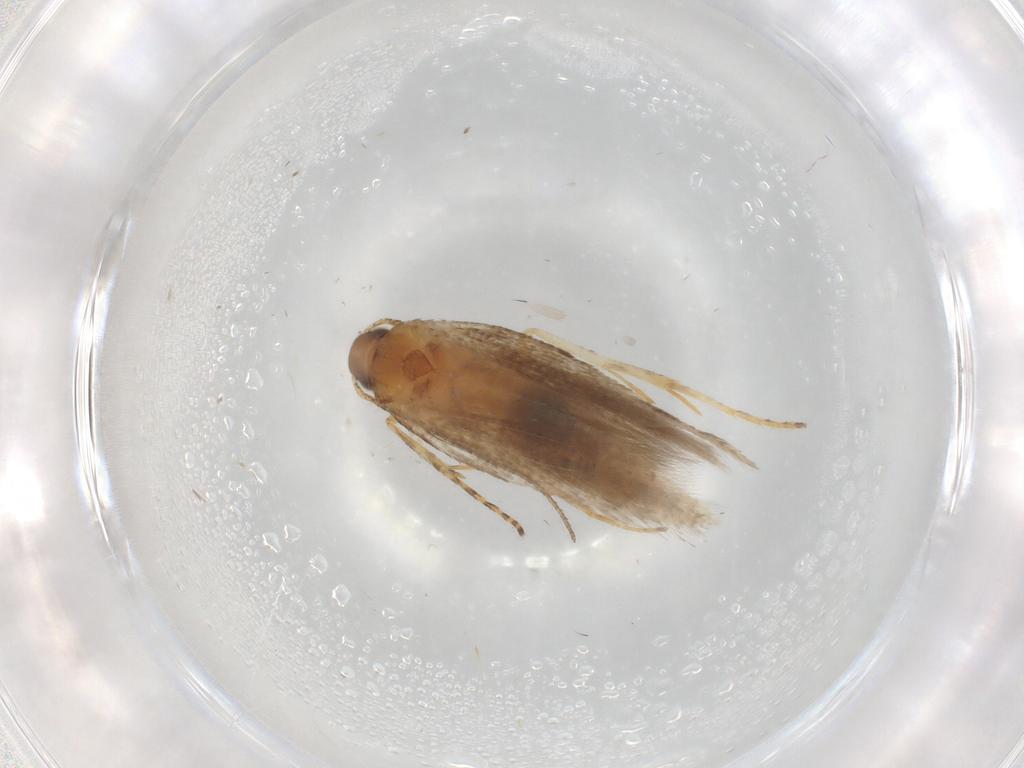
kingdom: Animalia
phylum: Arthropoda
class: Insecta
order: Lepidoptera
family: Gelechiidae
